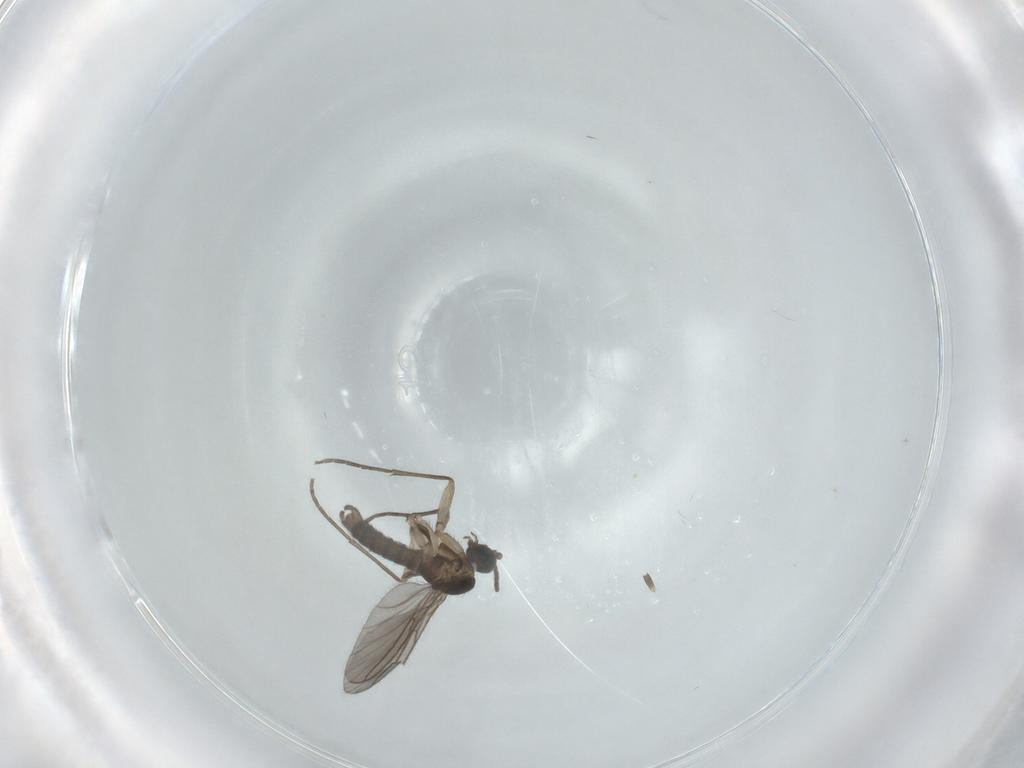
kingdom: Animalia
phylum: Arthropoda
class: Insecta
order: Diptera
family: Sciaridae
